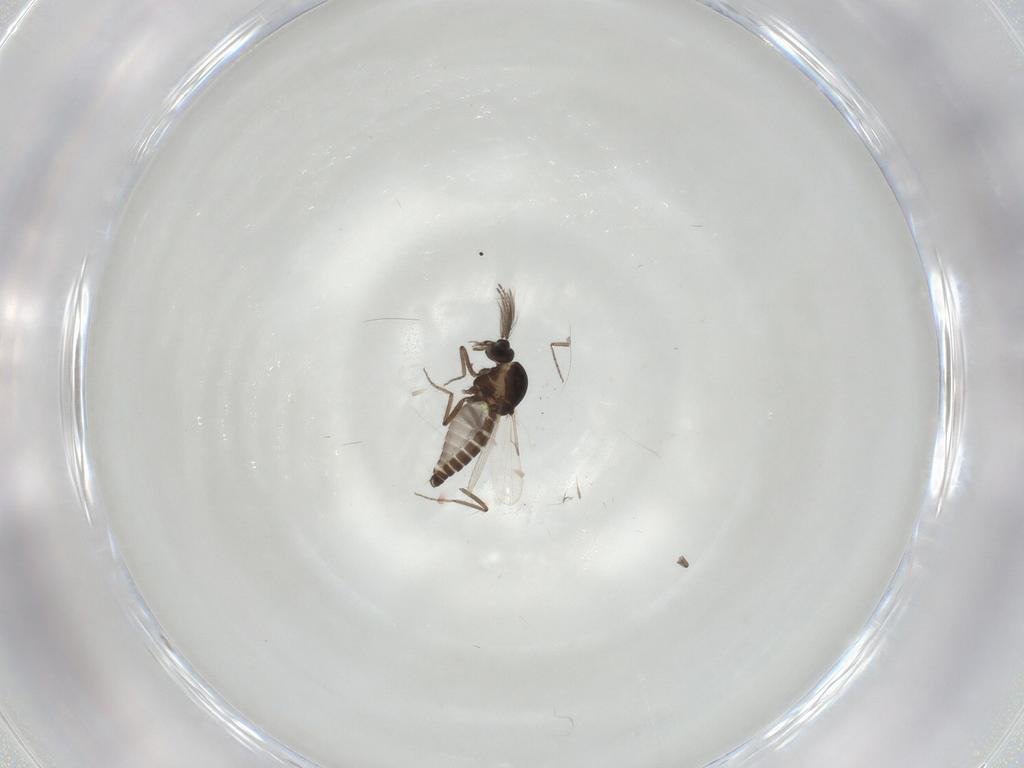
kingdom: Animalia
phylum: Arthropoda
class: Insecta
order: Diptera
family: Ceratopogonidae
